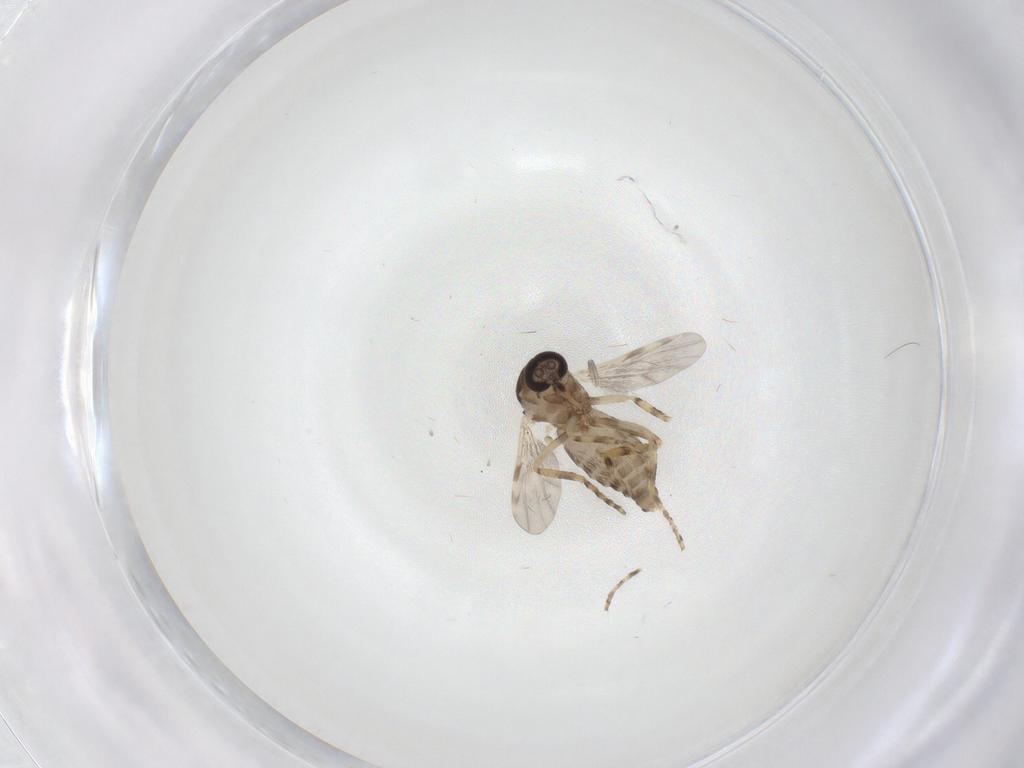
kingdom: Animalia
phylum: Arthropoda
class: Insecta
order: Diptera
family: Ceratopogonidae
